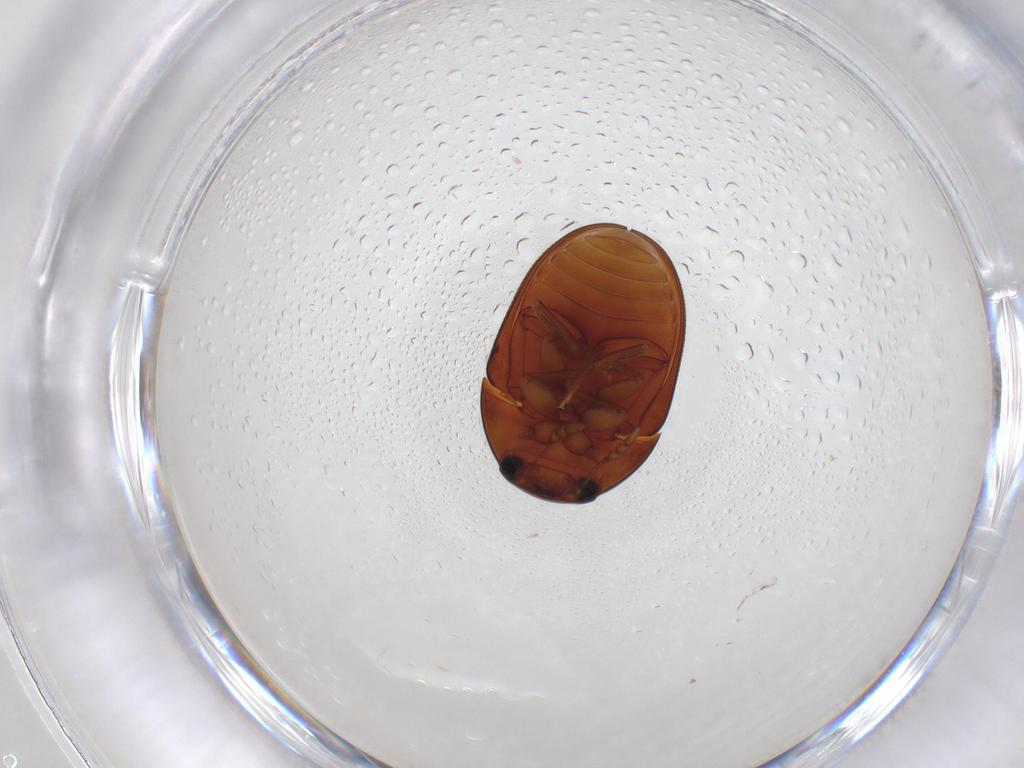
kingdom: Animalia
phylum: Arthropoda
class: Insecta
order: Coleoptera
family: Phalacridae
